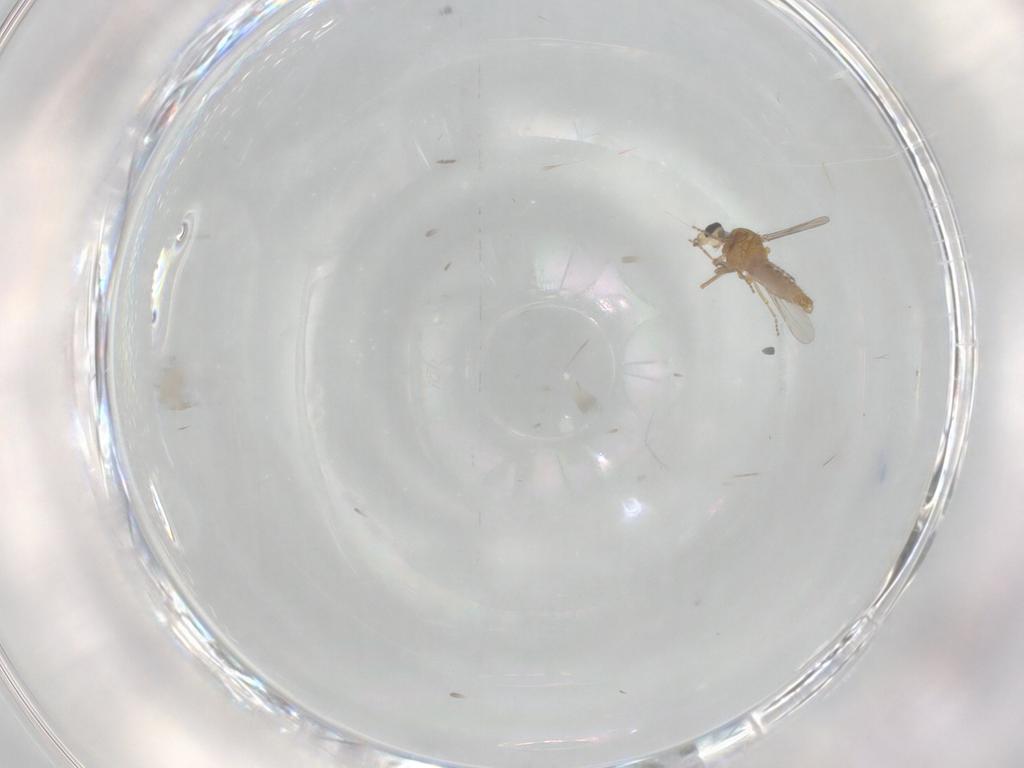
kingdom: Animalia
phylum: Arthropoda
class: Insecta
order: Diptera
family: Ceratopogonidae
